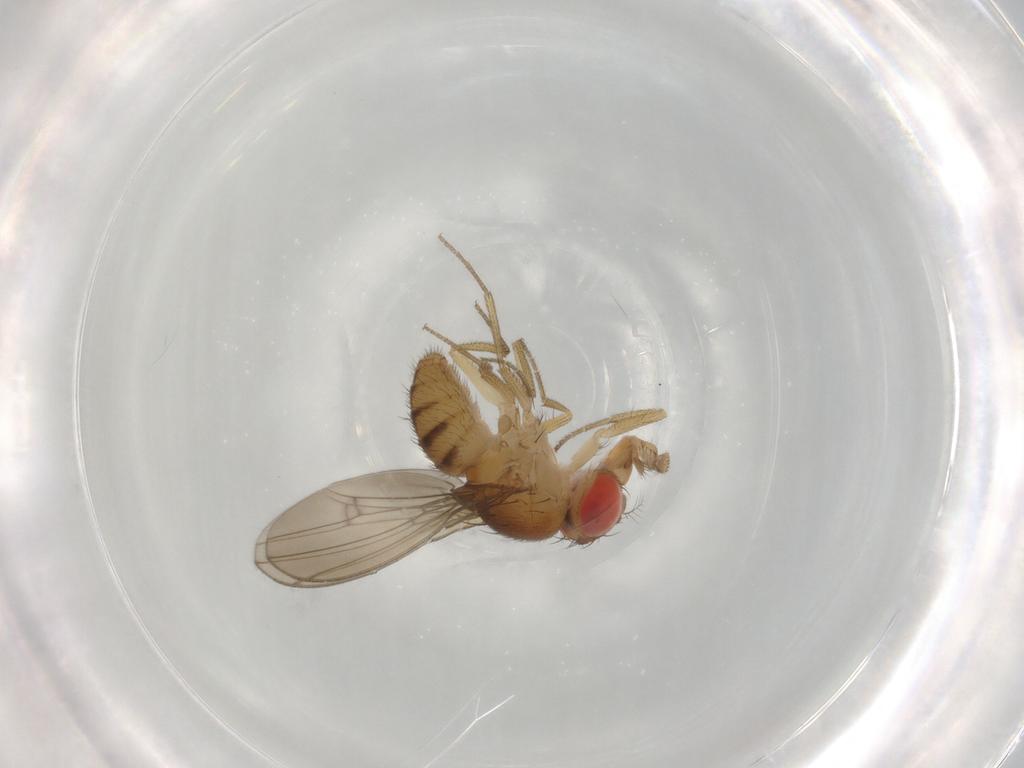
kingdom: Animalia
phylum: Arthropoda
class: Insecta
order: Diptera
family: Drosophilidae
